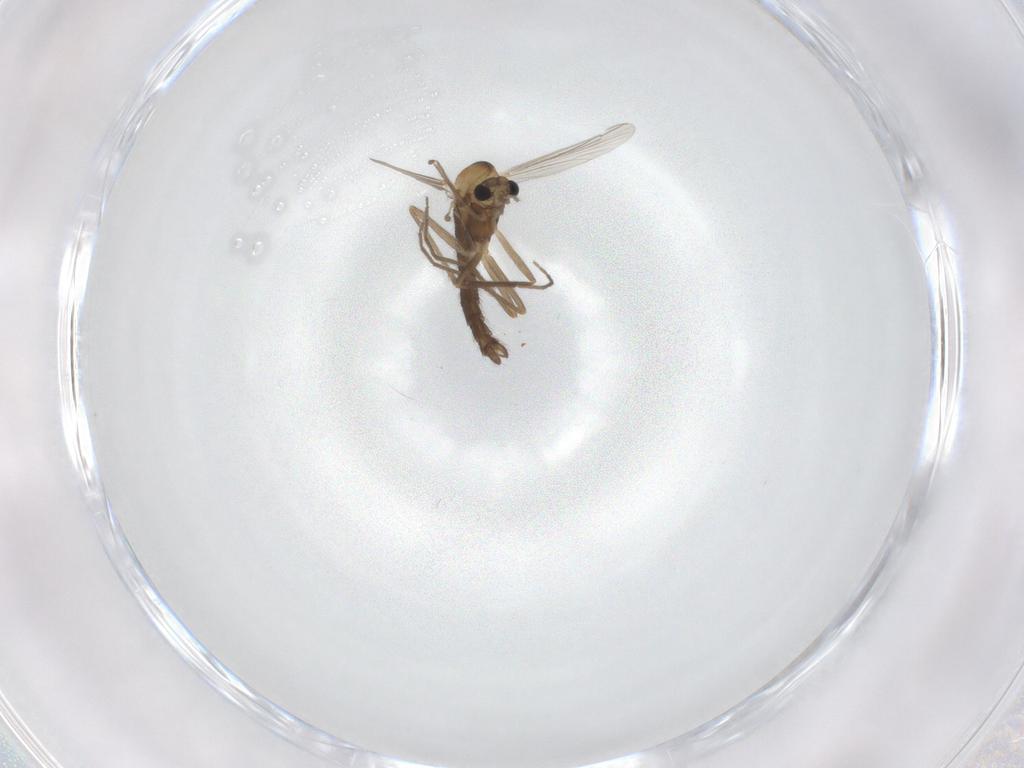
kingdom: Animalia
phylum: Arthropoda
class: Insecta
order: Diptera
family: Chironomidae
